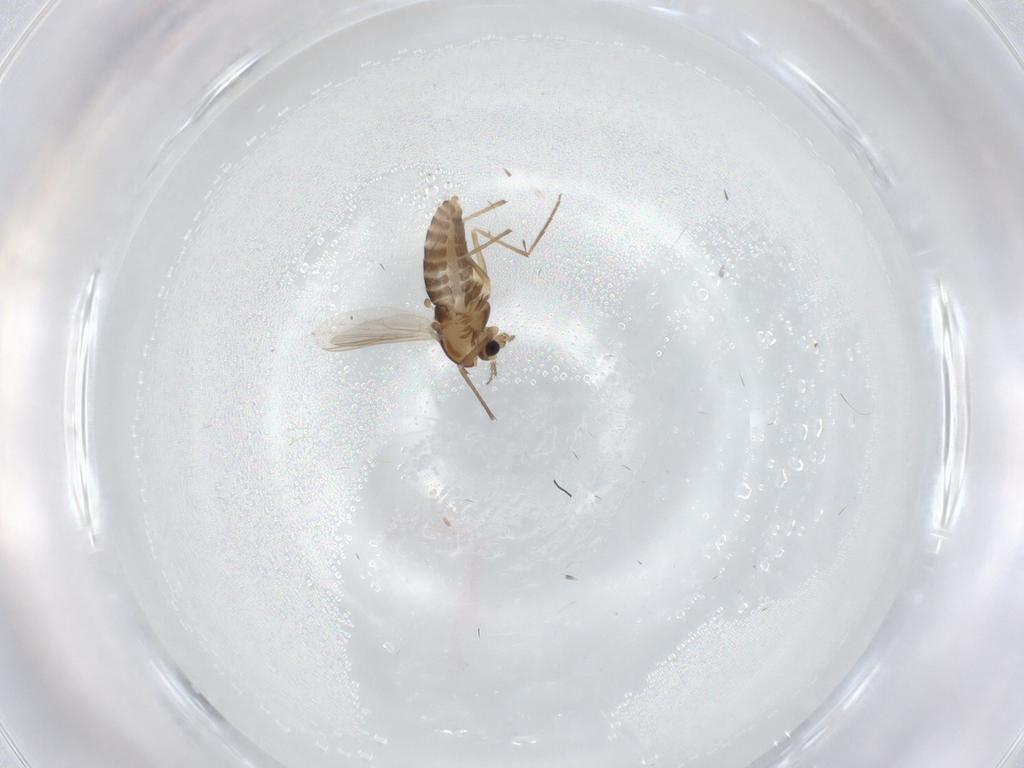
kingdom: Animalia
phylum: Arthropoda
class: Insecta
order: Diptera
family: Chironomidae
